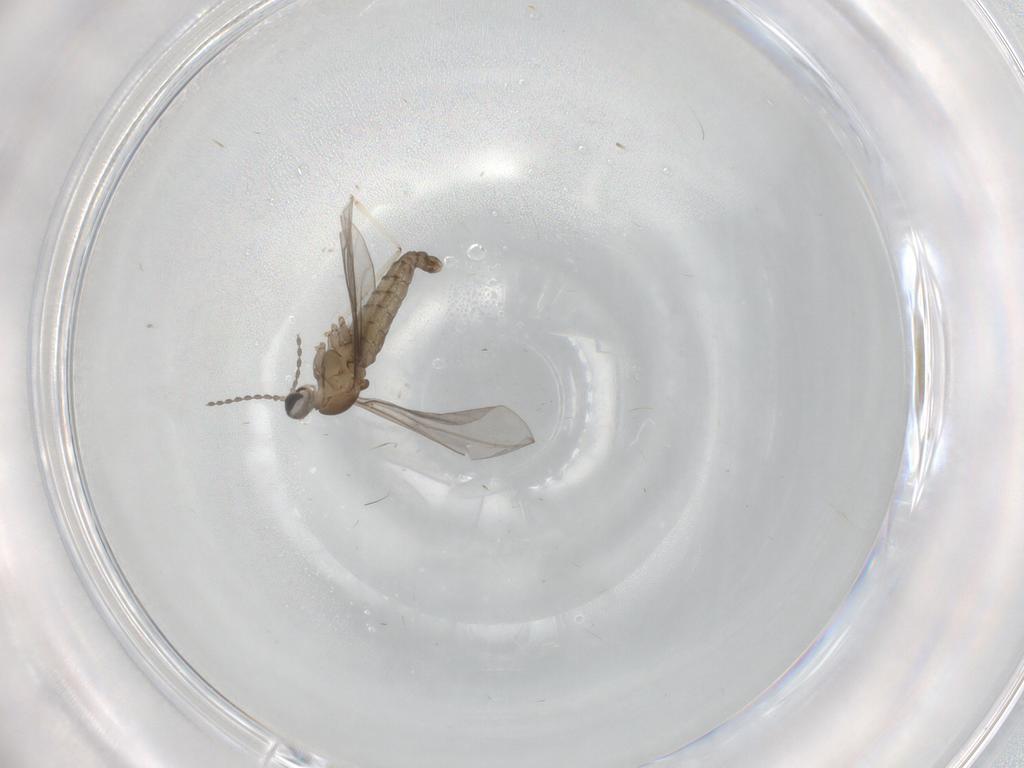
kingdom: Animalia
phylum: Arthropoda
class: Insecta
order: Diptera
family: Cecidomyiidae
